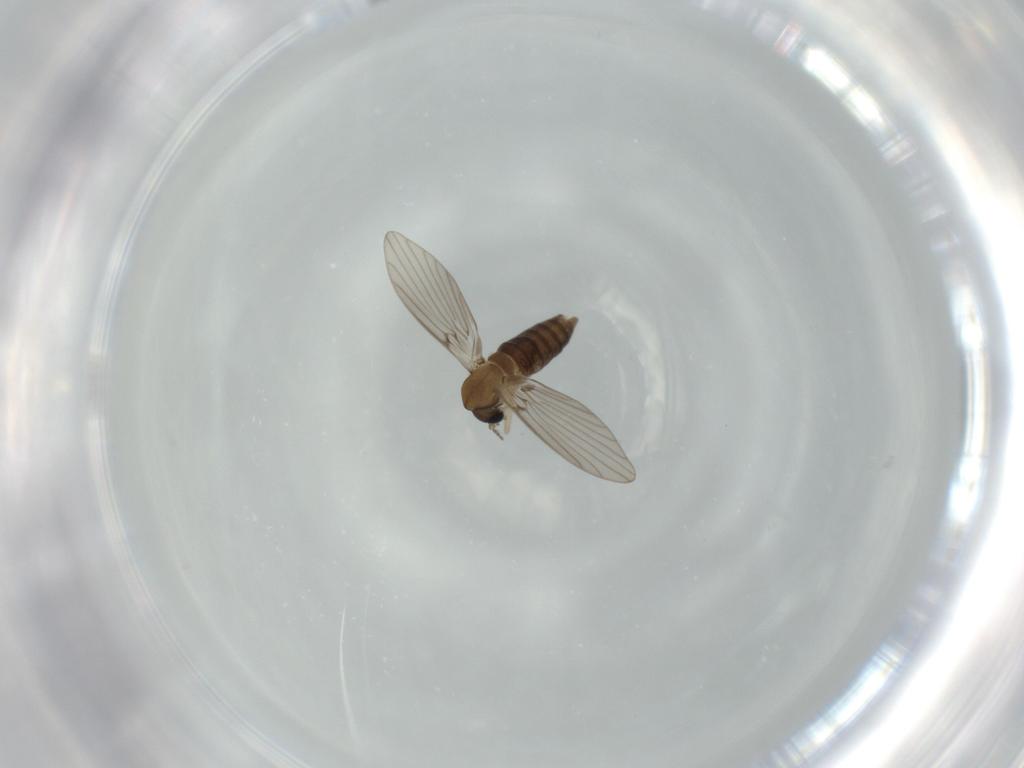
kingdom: Animalia
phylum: Arthropoda
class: Insecta
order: Diptera
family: Psychodidae
